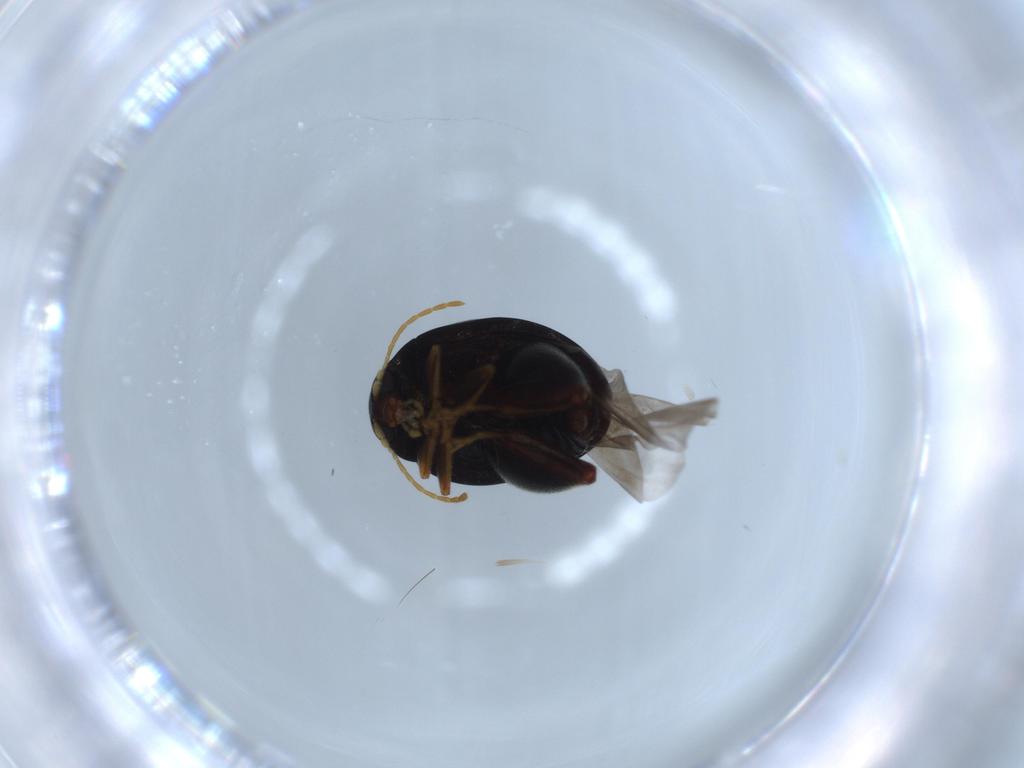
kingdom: Animalia
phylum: Arthropoda
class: Insecta
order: Coleoptera
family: Chrysomelidae
